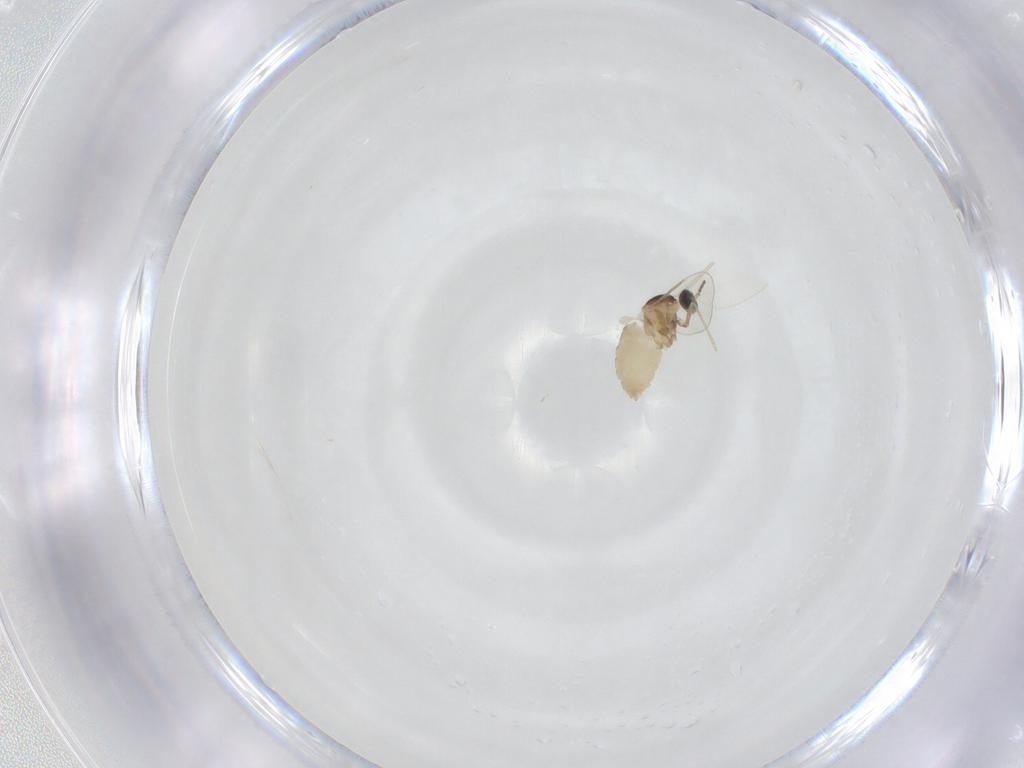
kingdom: Animalia
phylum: Arthropoda
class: Insecta
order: Diptera
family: Cecidomyiidae
